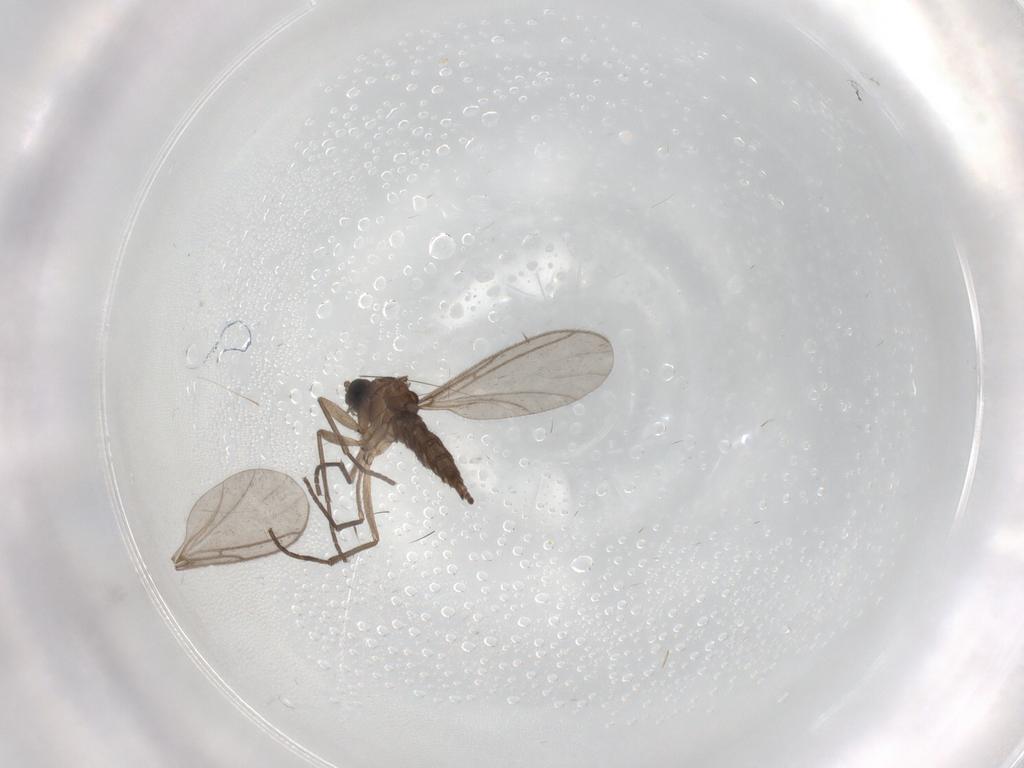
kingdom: Animalia
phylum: Arthropoda
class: Insecta
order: Diptera
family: Sciaridae
